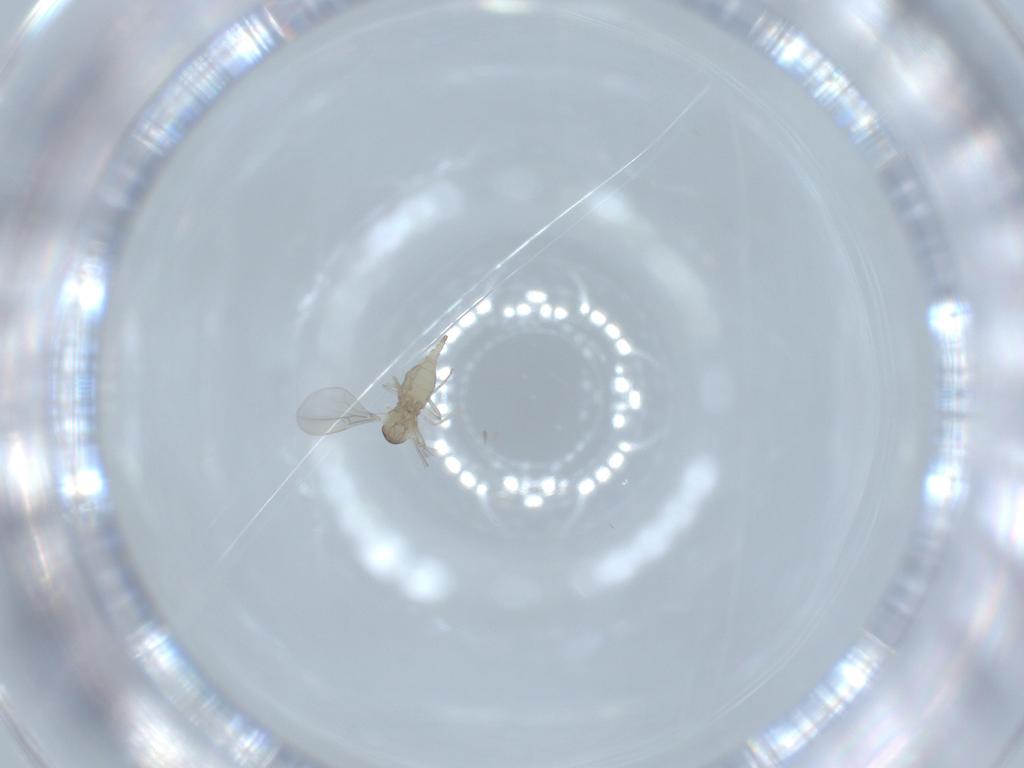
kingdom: Animalia
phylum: Arthropoda
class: Insecta
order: Diptera
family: Cecidomyiidae
